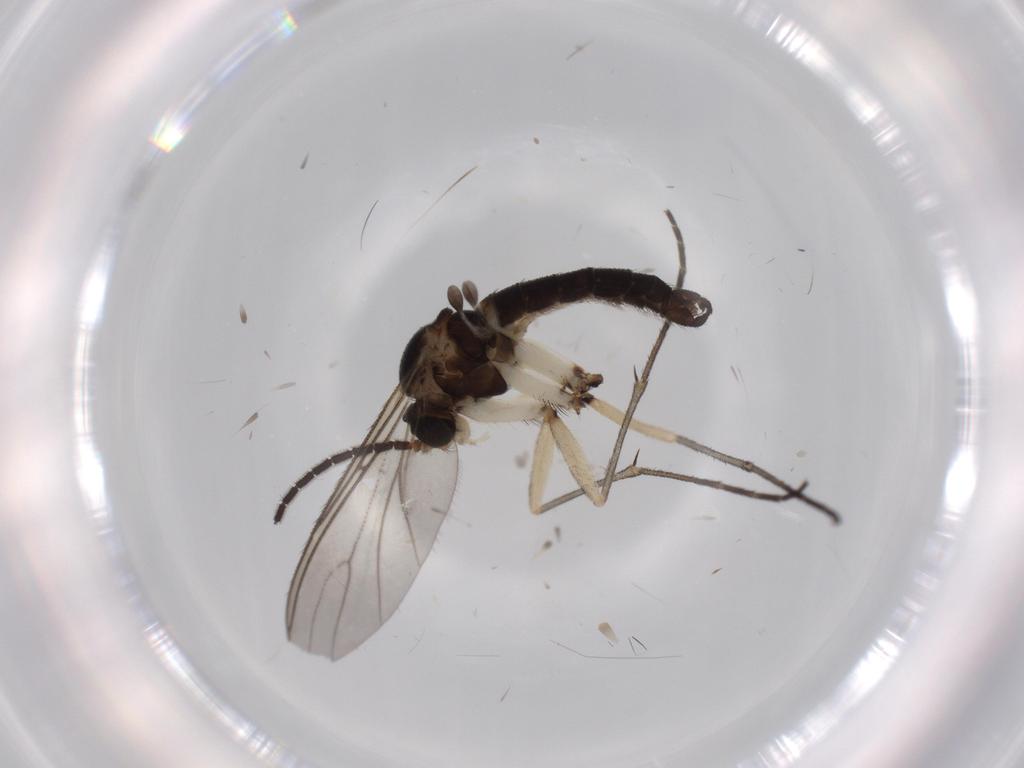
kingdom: Animalia
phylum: Arthropoda
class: Insecta
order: Diptera
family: Sciaridae
